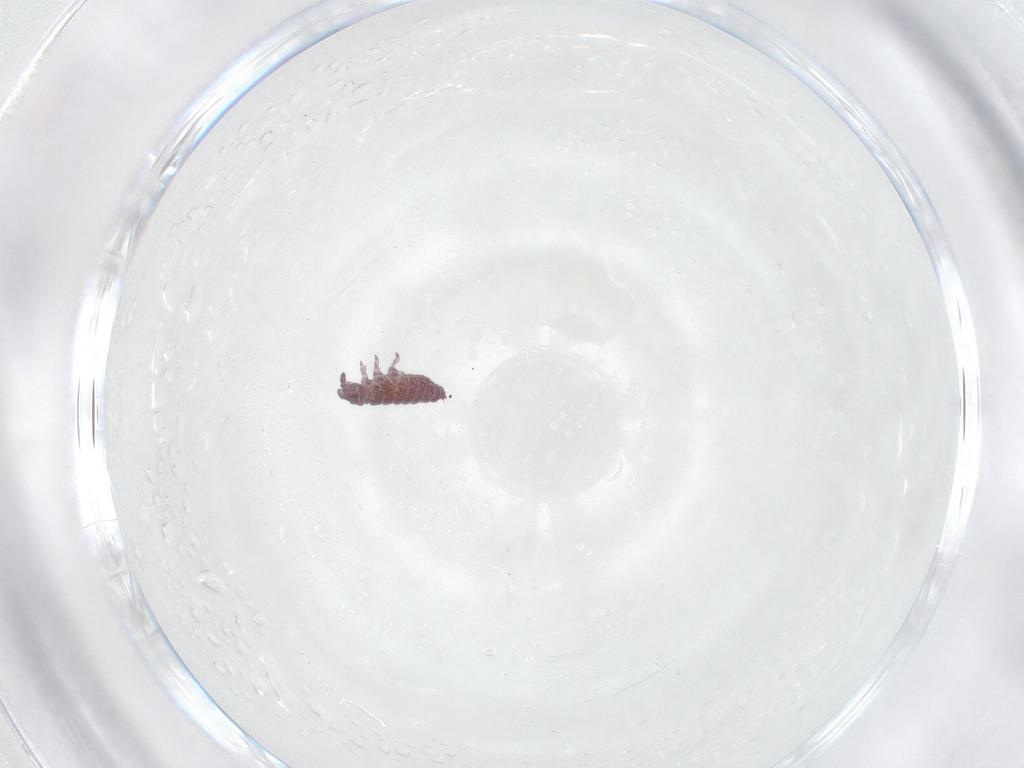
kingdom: Animalia
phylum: Arthropoda
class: Collembola
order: Poduromorpha
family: Hypogastruridae
